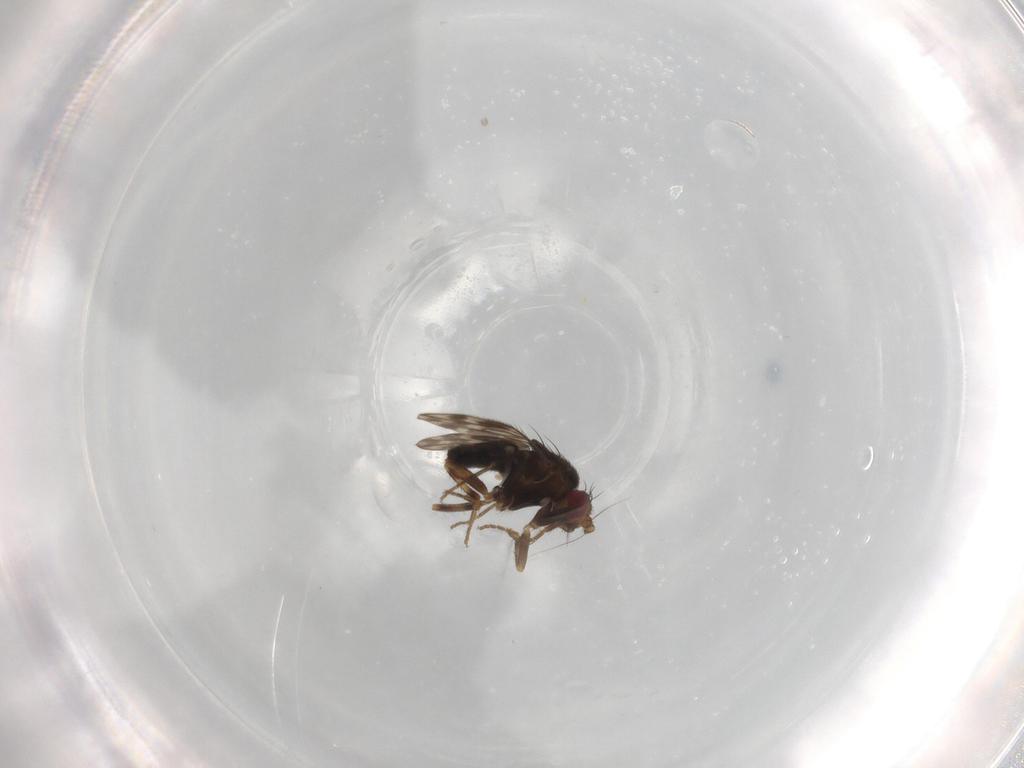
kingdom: Animalia
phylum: Arthropoda
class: Insecta
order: Diptera
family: Sphaeroceridae
